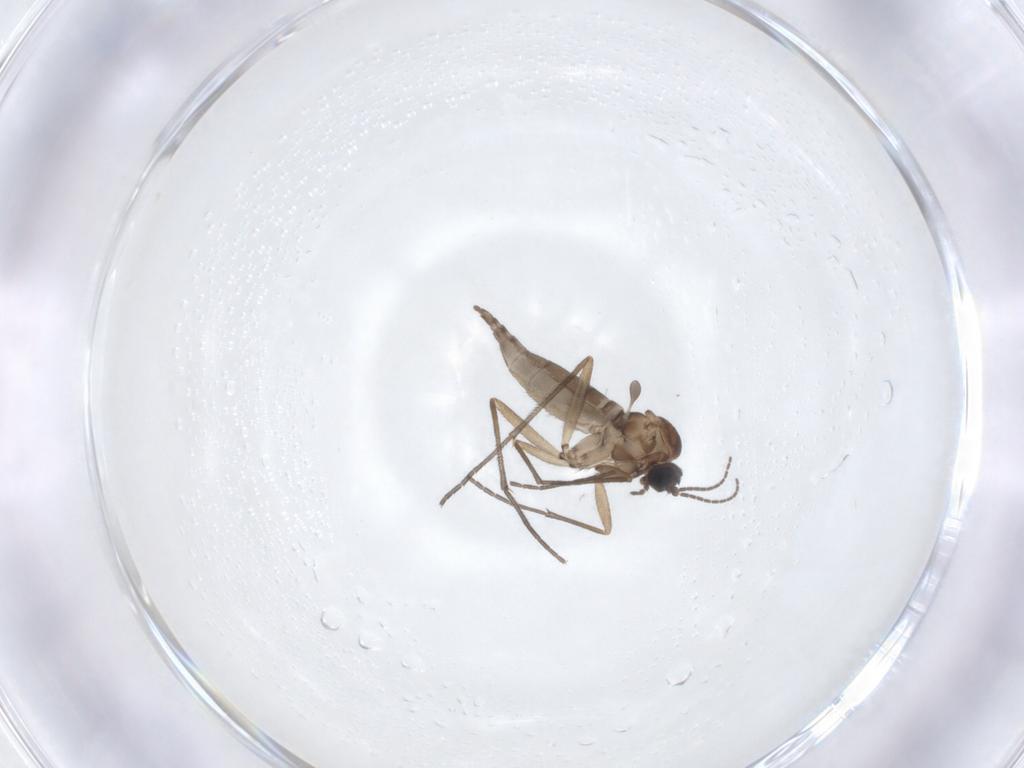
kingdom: Animalia
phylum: Arthropoda
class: Insecta
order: Diptera
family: Sciaridae
